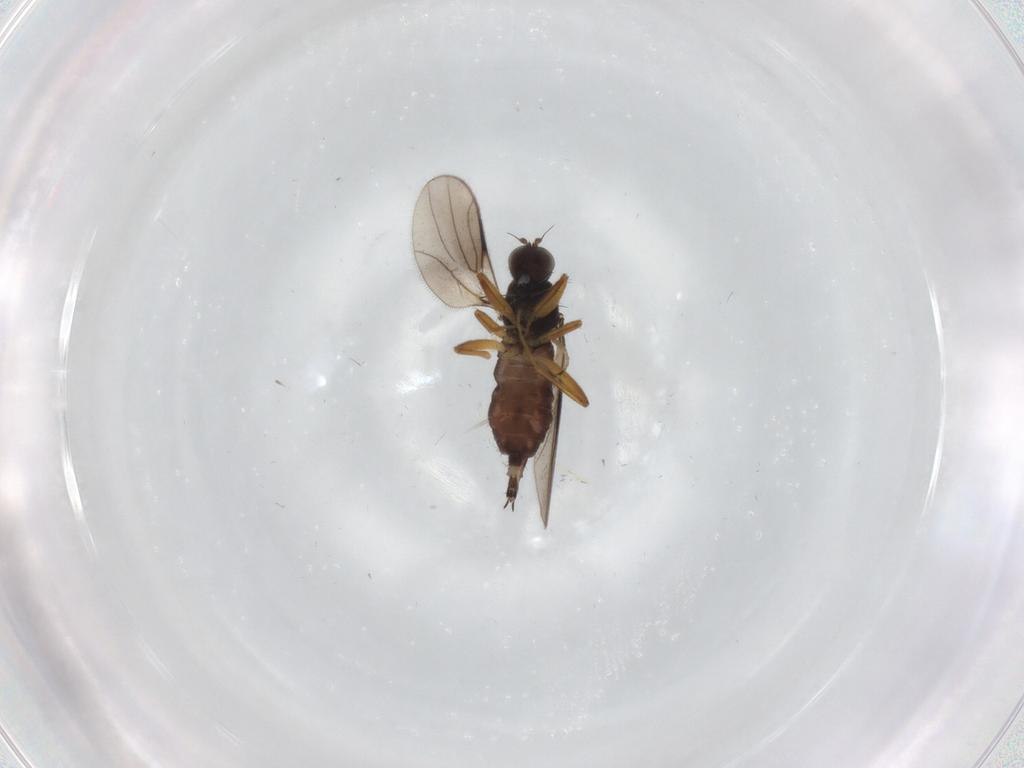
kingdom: Animalia
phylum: Arthropoda
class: Insecta
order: Diptera
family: Hybotidae
